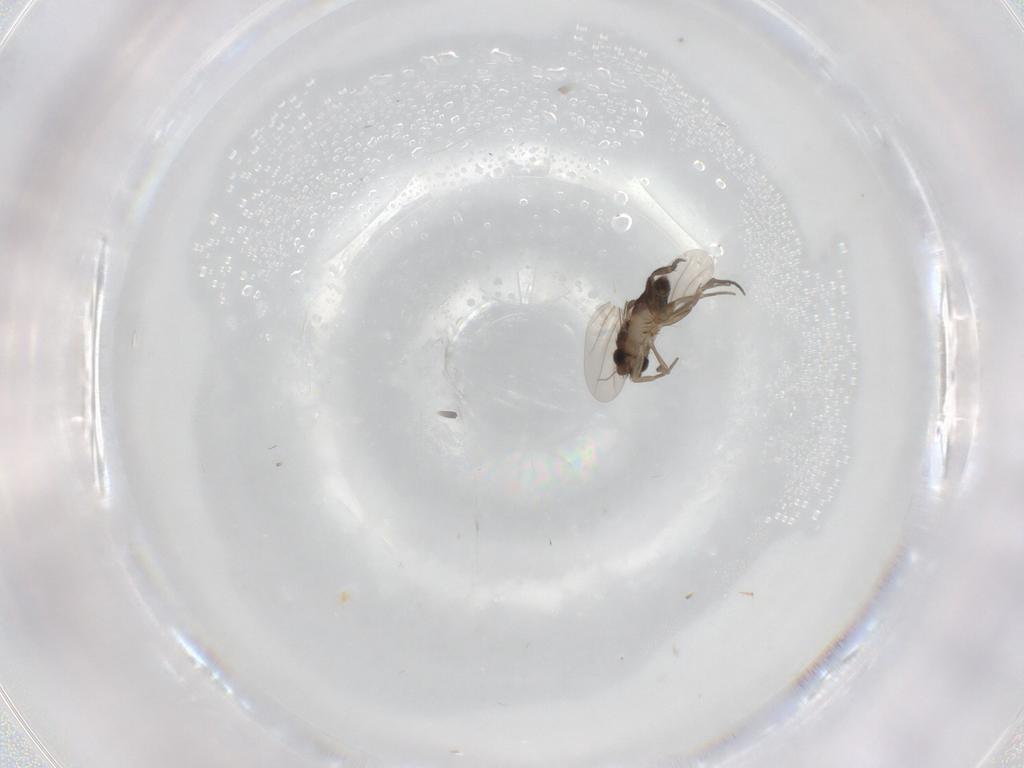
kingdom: Animalia
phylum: Arthropoda
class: Insecta
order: Diptera
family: Phoridae
